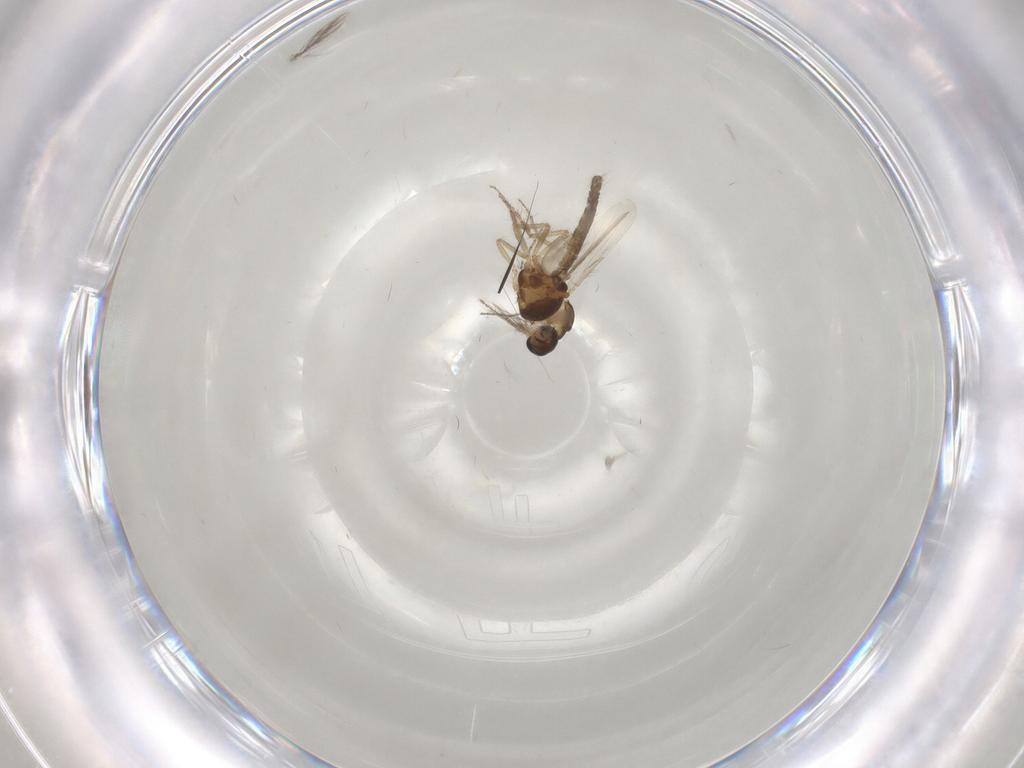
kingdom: Animalia
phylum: Arthropoda
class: Insecta
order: Diptera
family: Ceratopogonidae
